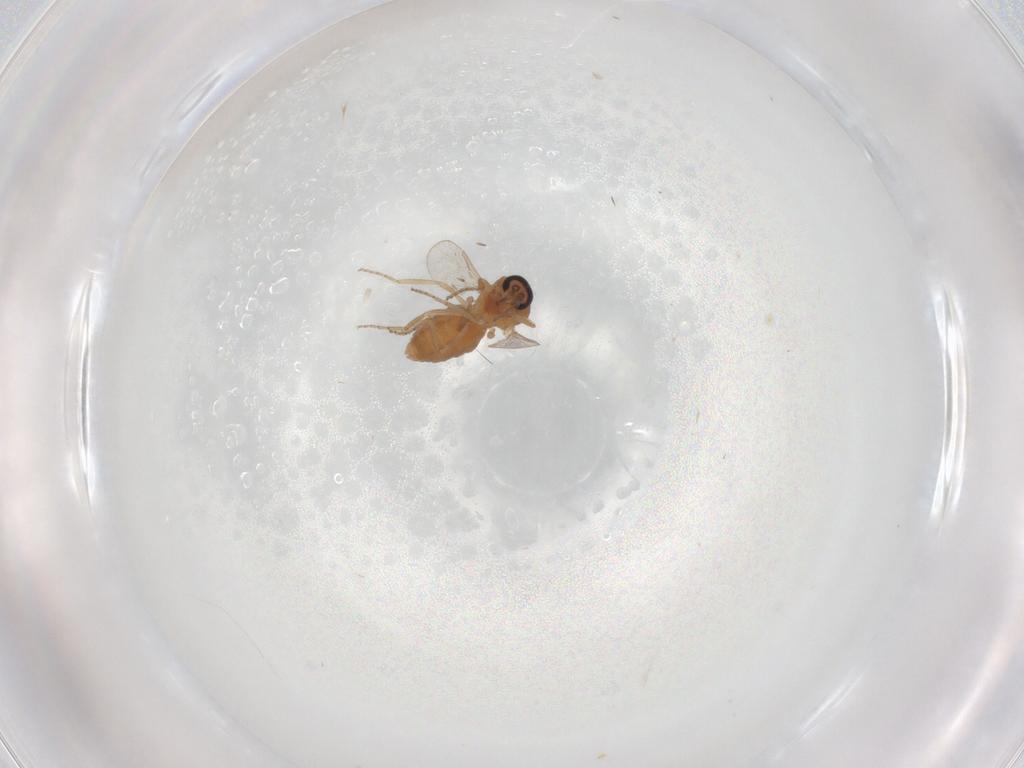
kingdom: Animalia
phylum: Arthropoda
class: Insecta
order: Diptera
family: Ceratopogonidae
